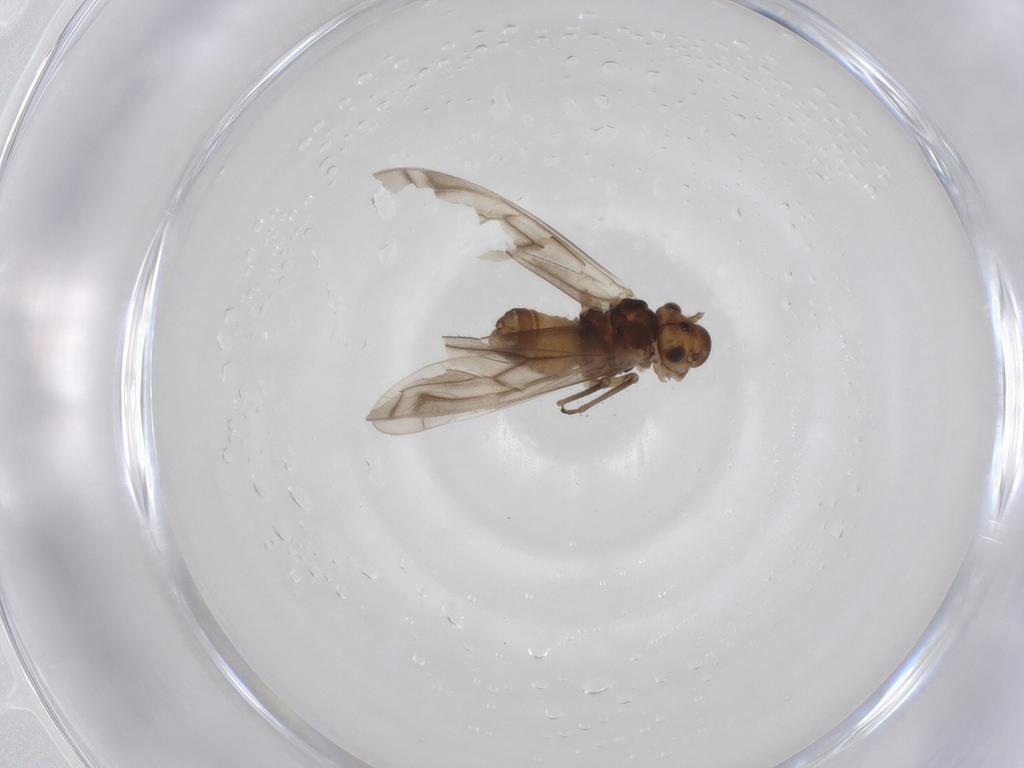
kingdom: Animalia
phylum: Arthropoda
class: Insecta
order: Psocodea
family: Philotarsidae
